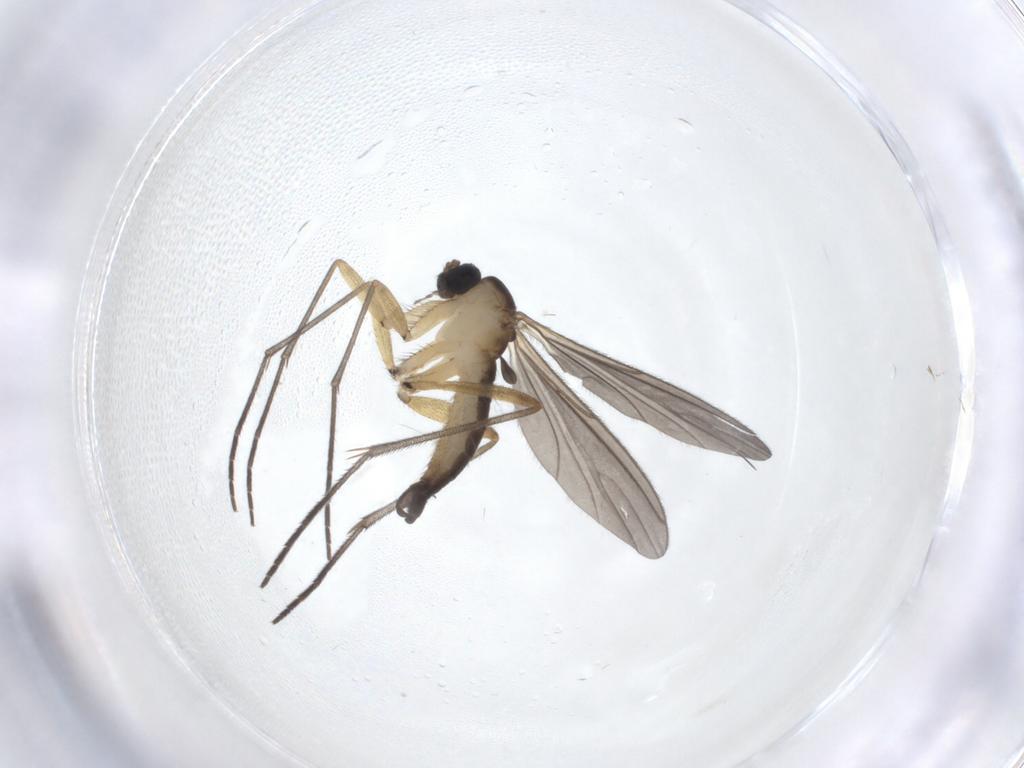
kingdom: Animalia
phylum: Arthropoda
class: Insecta
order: Diptera
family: Sciaridae
